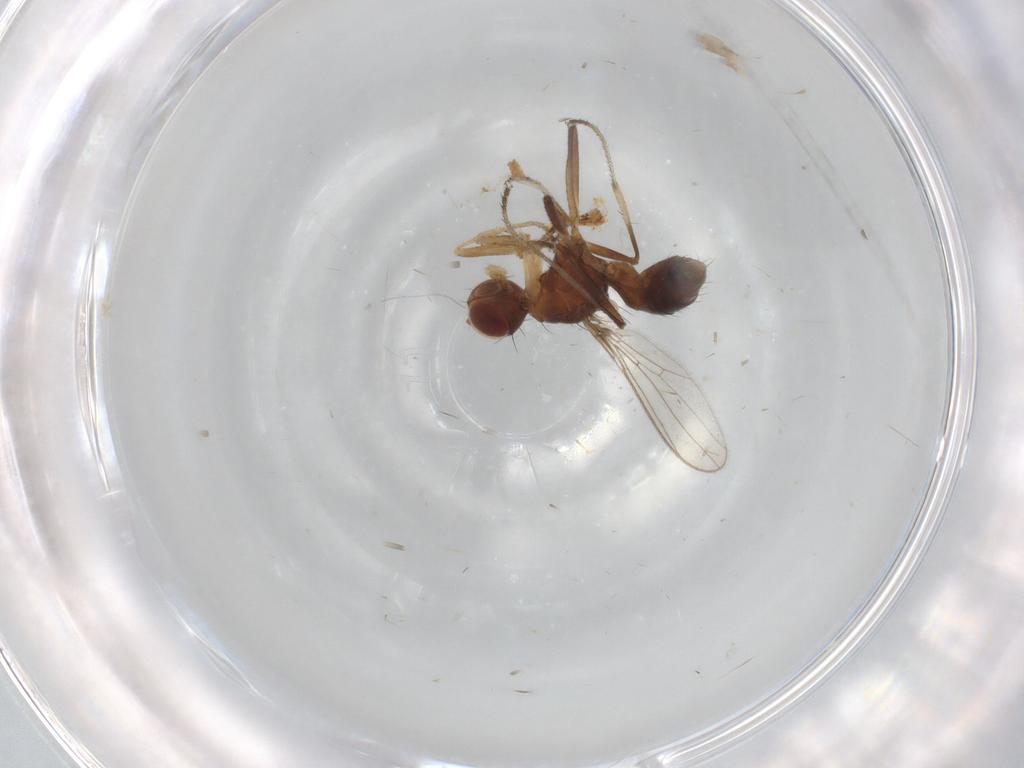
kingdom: Animalia
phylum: Arthropoda
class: Insecta
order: Diptera
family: Sepsidae
